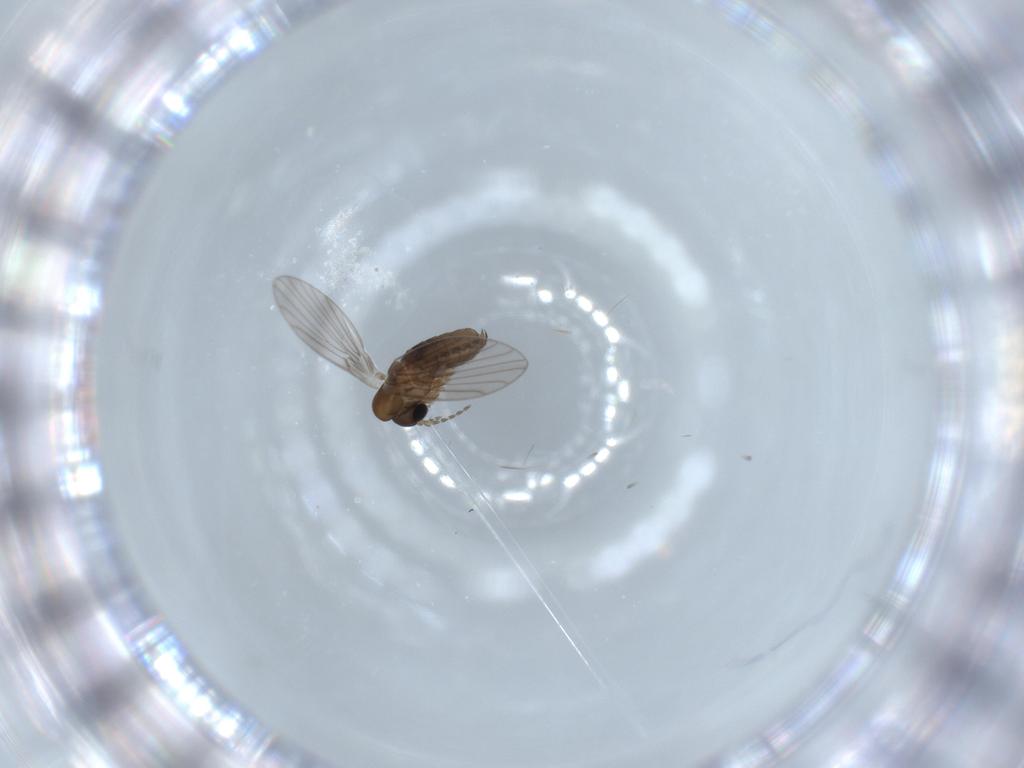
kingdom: Animalia
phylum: Arthropoda
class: Insecta
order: Diptera
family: Psychodidae
